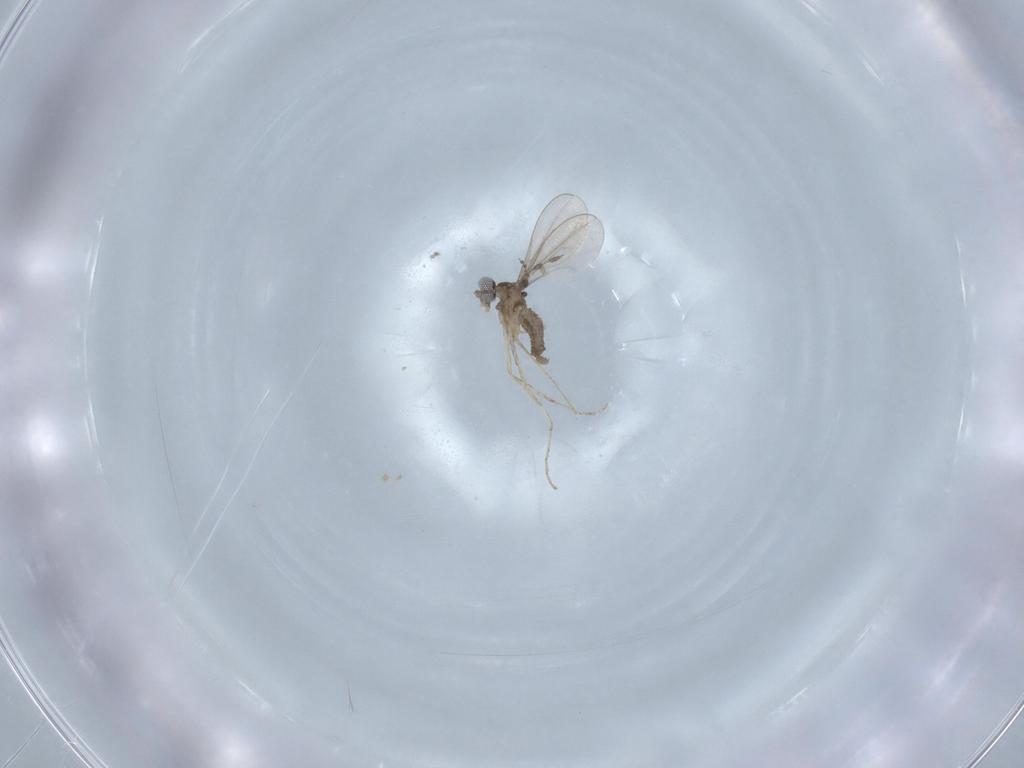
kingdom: Animalia
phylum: Arthropoda
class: Insecta
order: Diptera
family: Cecidomyiidae
